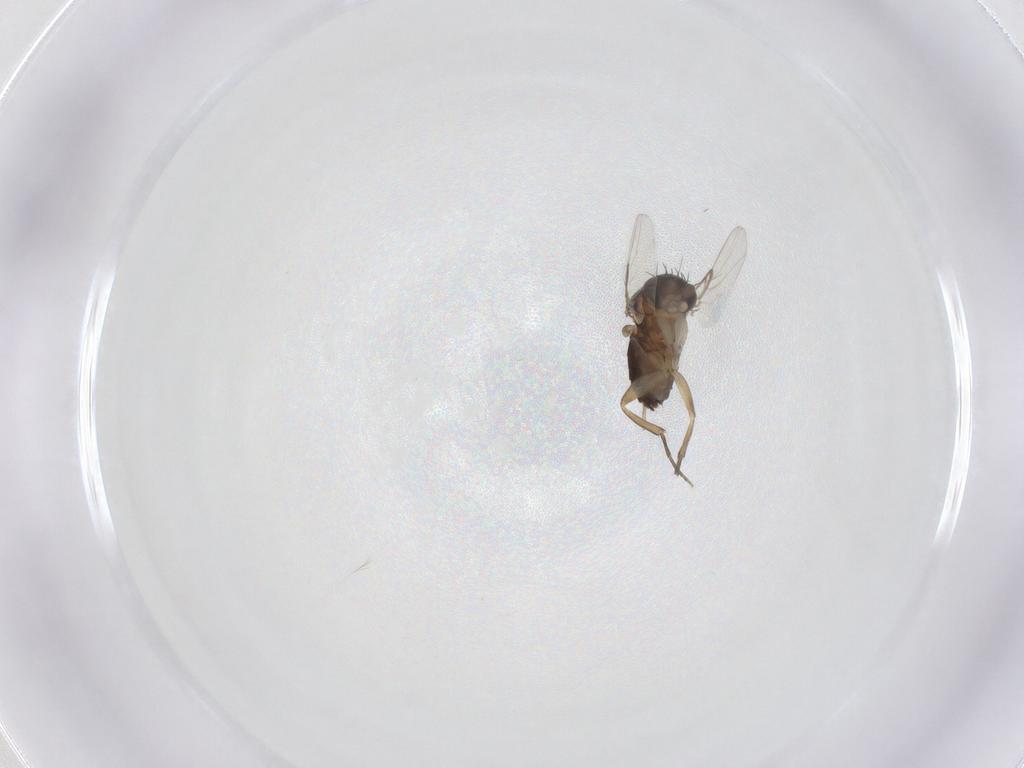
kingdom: Animalia
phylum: Arthropoda
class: Insecta
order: Diptera
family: Phoridae
